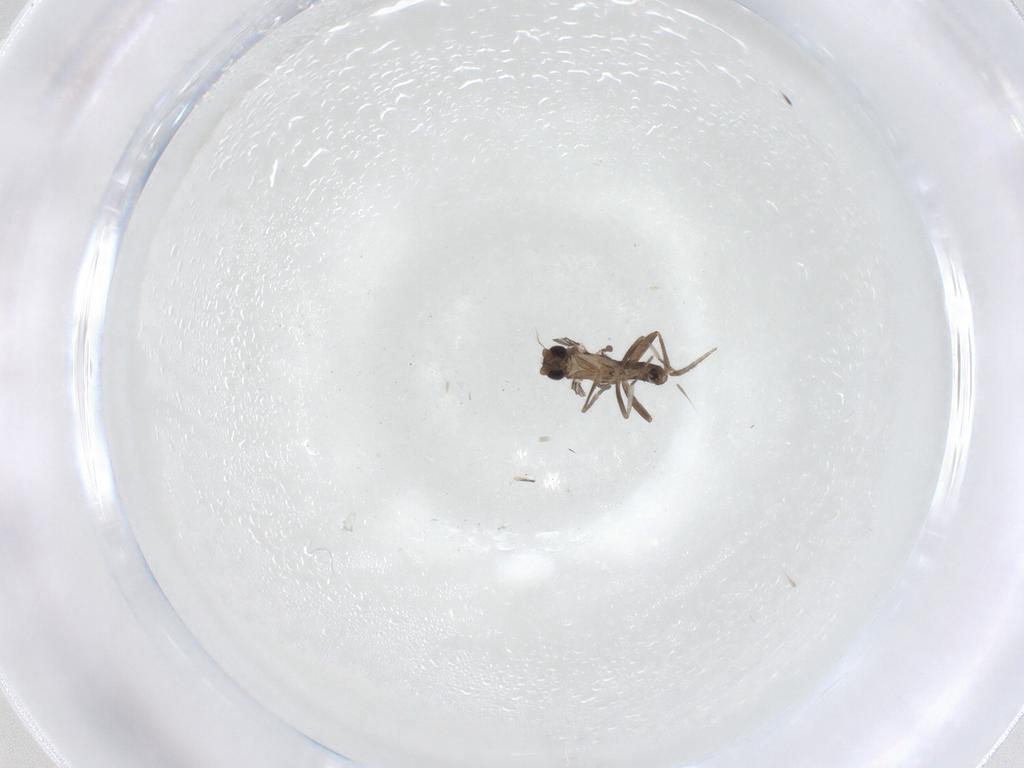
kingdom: Animalia
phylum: Arthropoda
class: Insecta
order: Diptera
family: Phoridae
